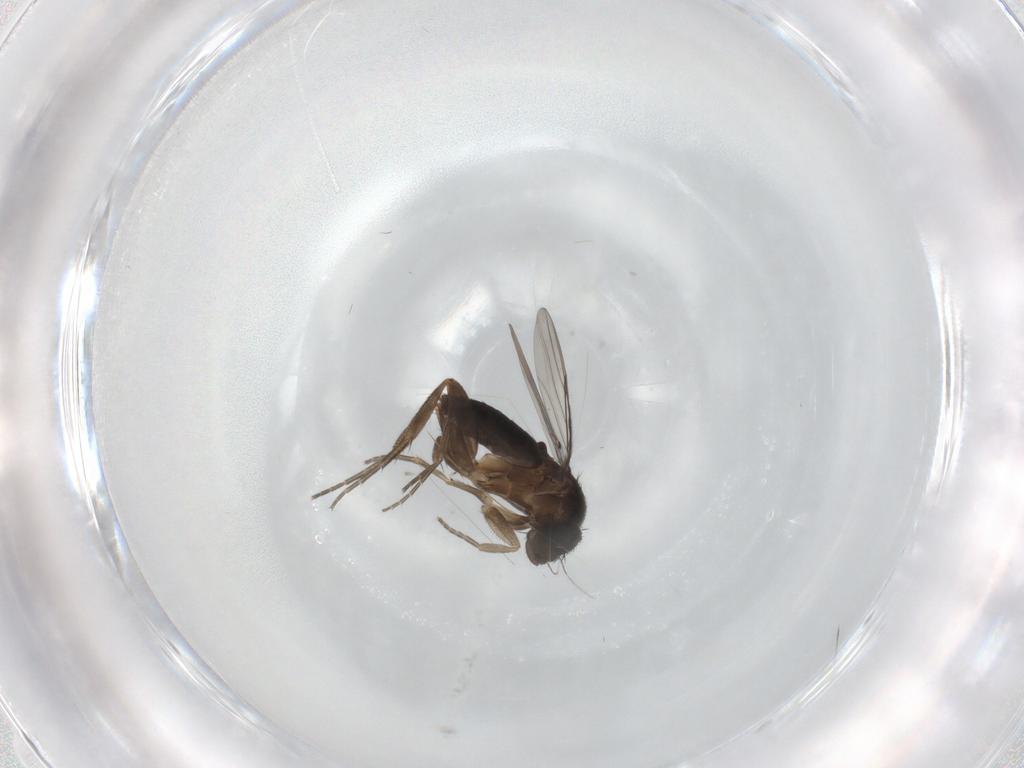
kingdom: Animalia
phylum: Arthropoda
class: Insecta
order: Diptera
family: Phoridae
